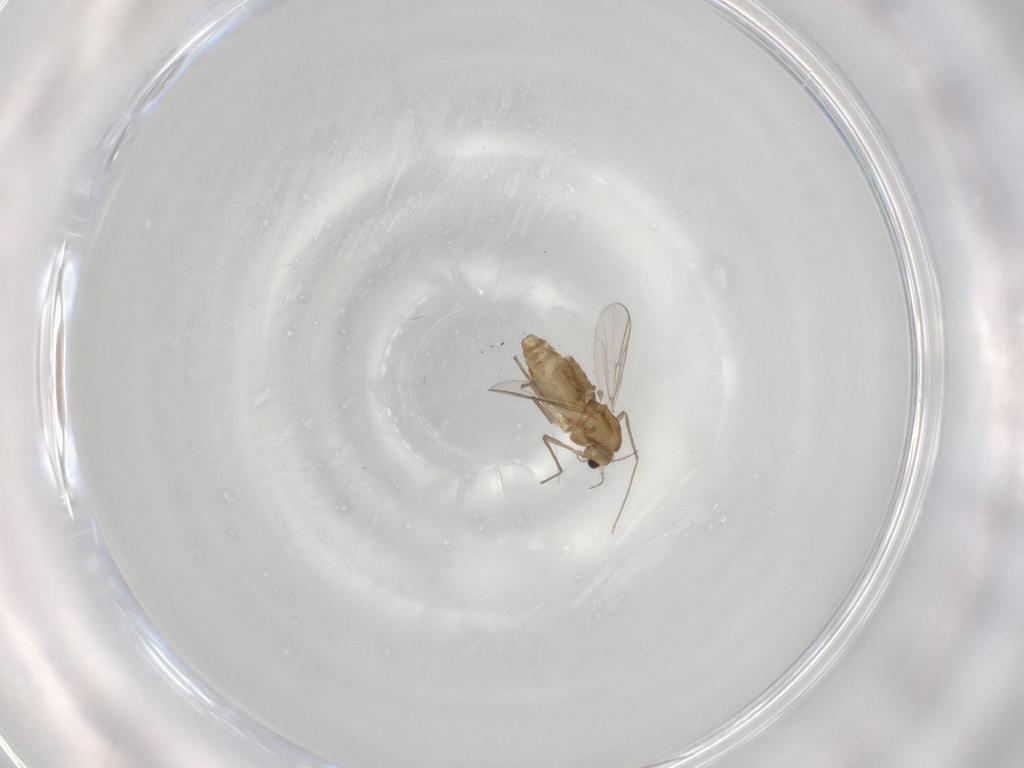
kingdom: Animalia
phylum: Arthropoda
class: Insecta
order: Diptera
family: Chironomidae
